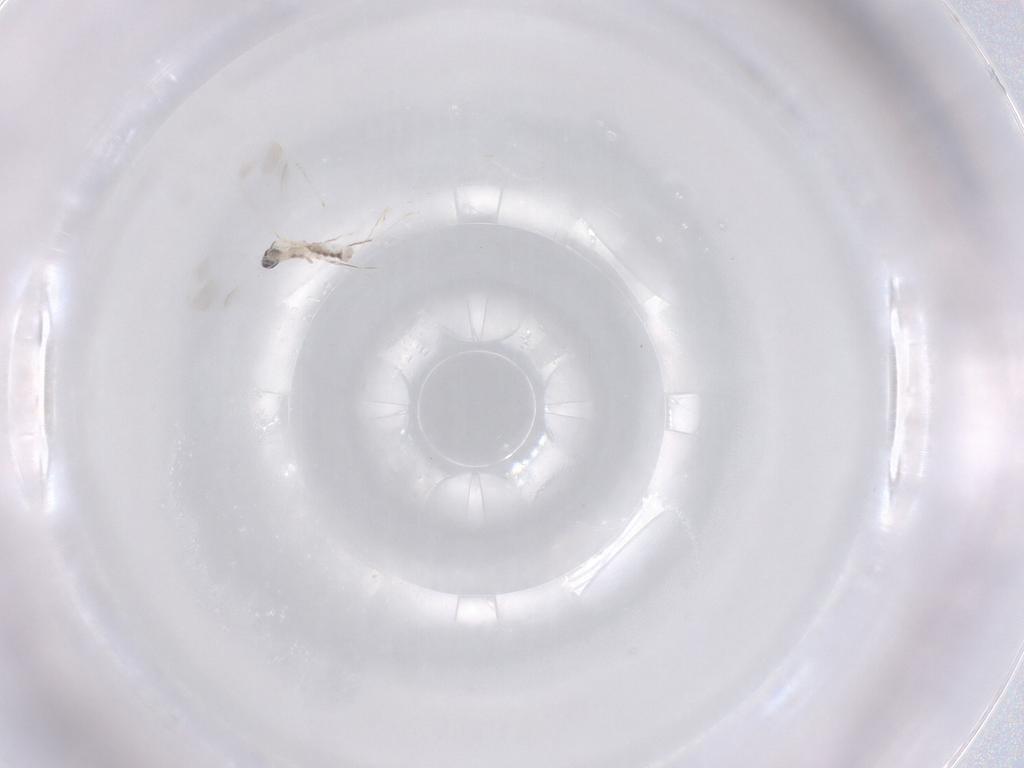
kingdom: Animalia
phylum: Arthropoda
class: Insecta
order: Diptera
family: Cecidomyiidae
